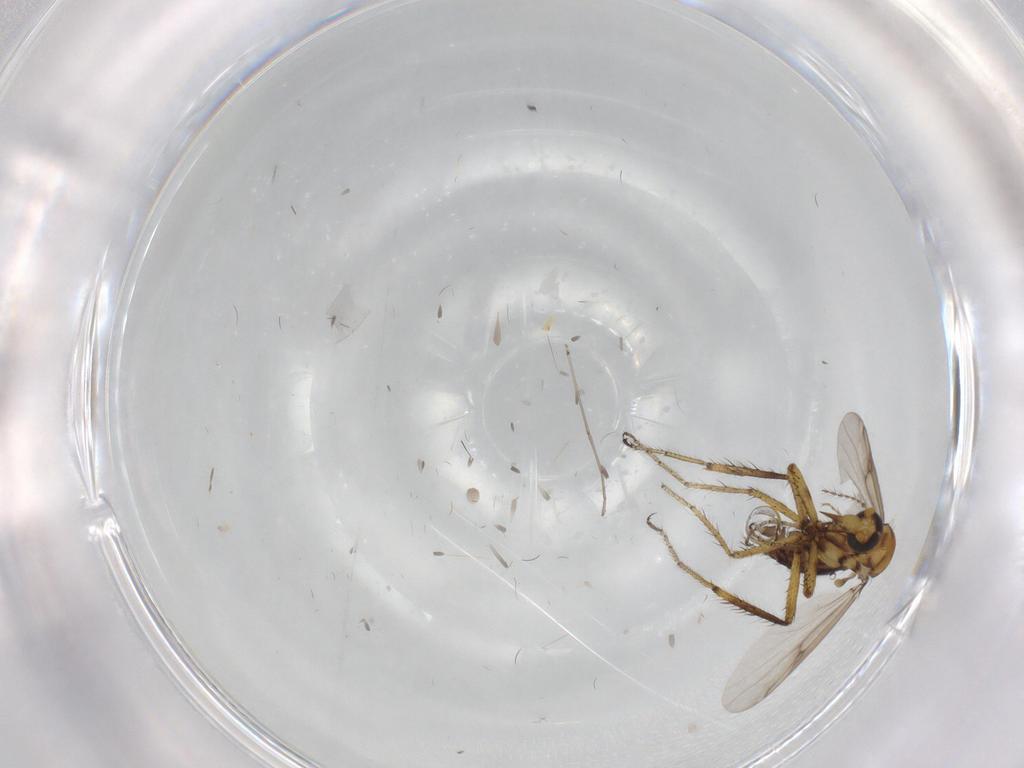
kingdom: Animalia
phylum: Arthropoda
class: Insecta
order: Diptera
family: Ceratopogonidae
